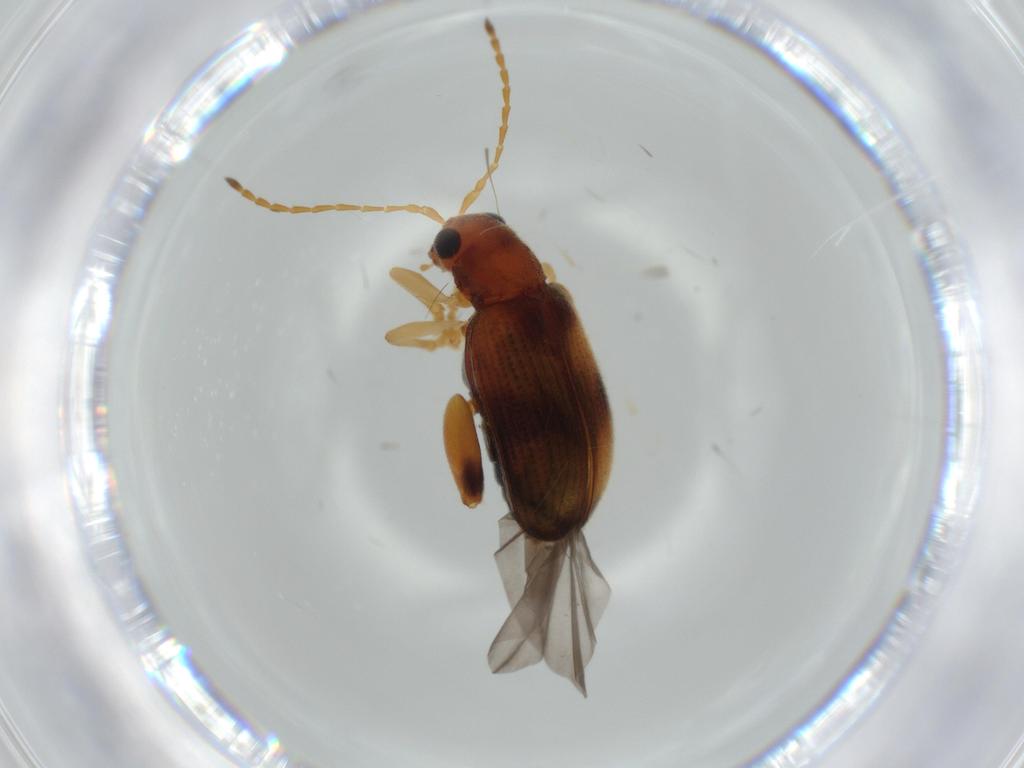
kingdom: Animalia
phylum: Arthropoda
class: Insecta
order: Coleoptera
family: Chrysomelidae
